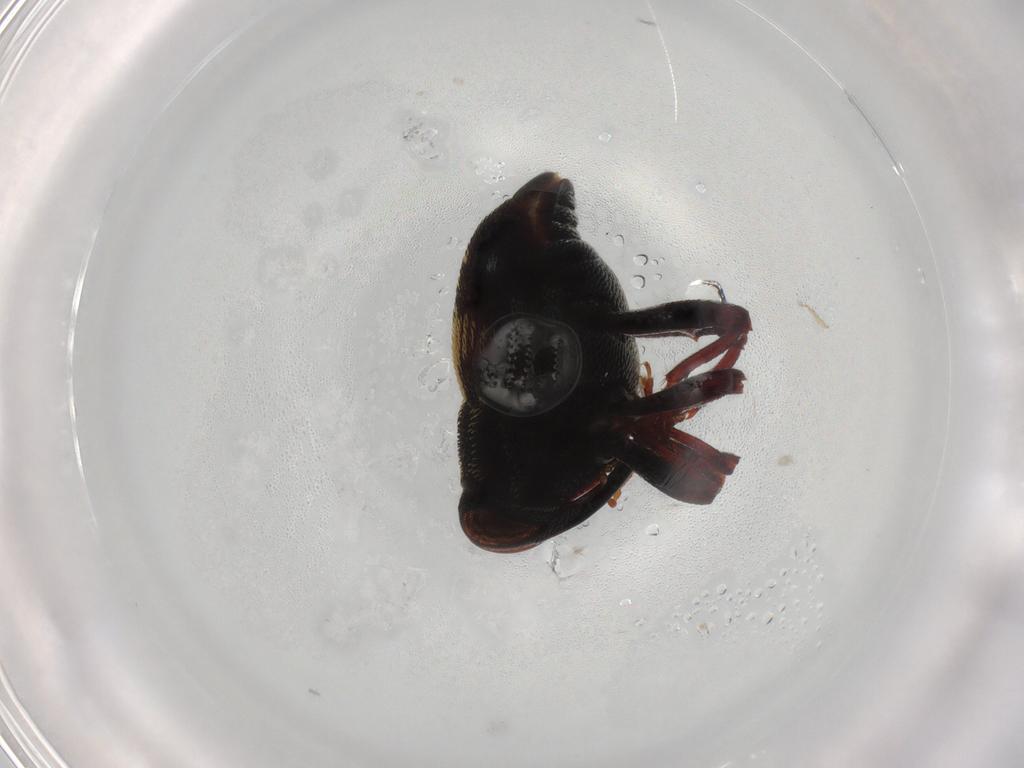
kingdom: Animalia
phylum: Arthropoda
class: Insecta
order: Coleoptera
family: Curculionidae
